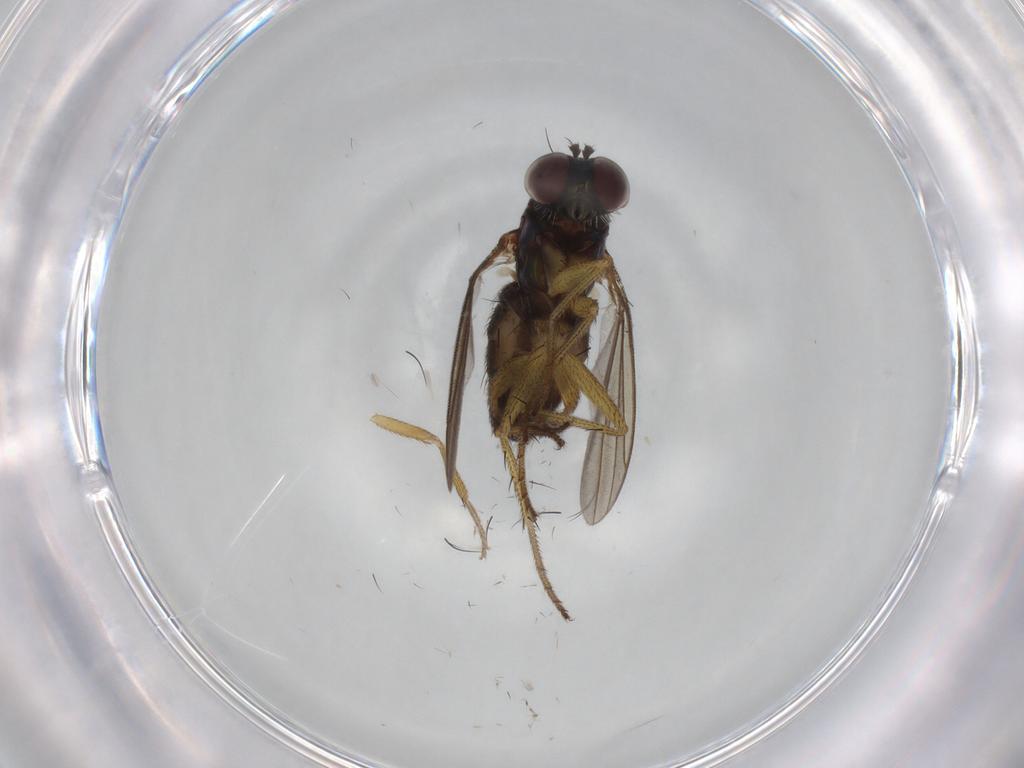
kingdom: Animalia
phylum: Arthropoda
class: Insecta
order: Diptera
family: Dolichopodidae
